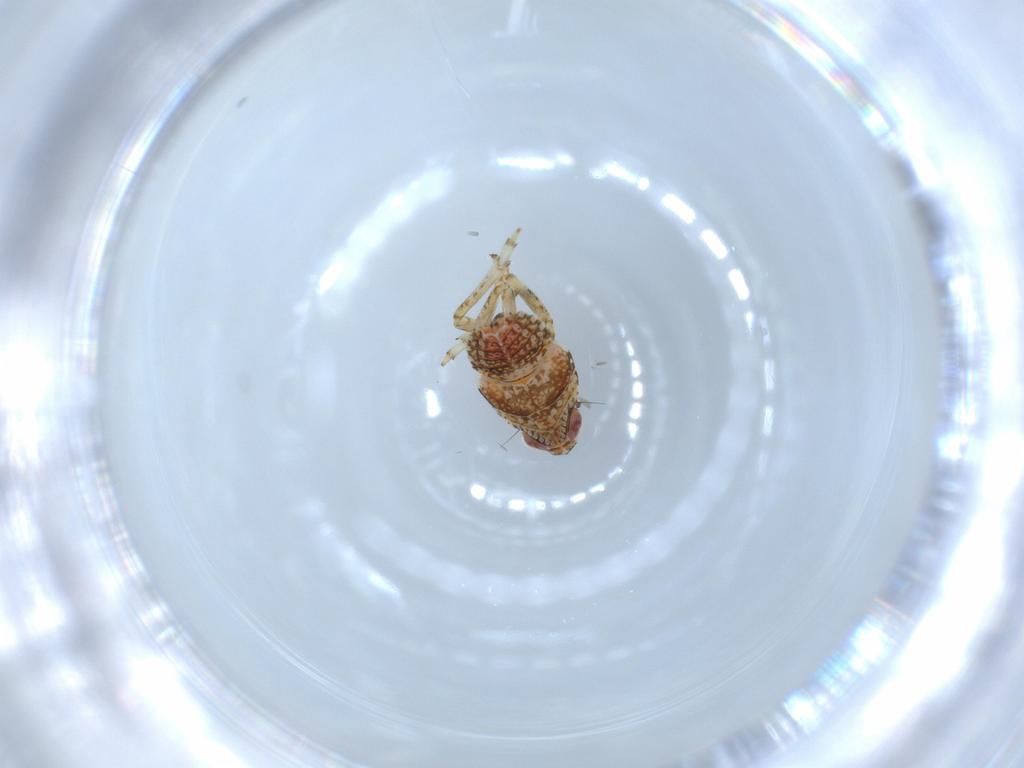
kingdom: Animalia
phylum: Arthropoda
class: Insecta
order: Hemiptera
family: Issidae
